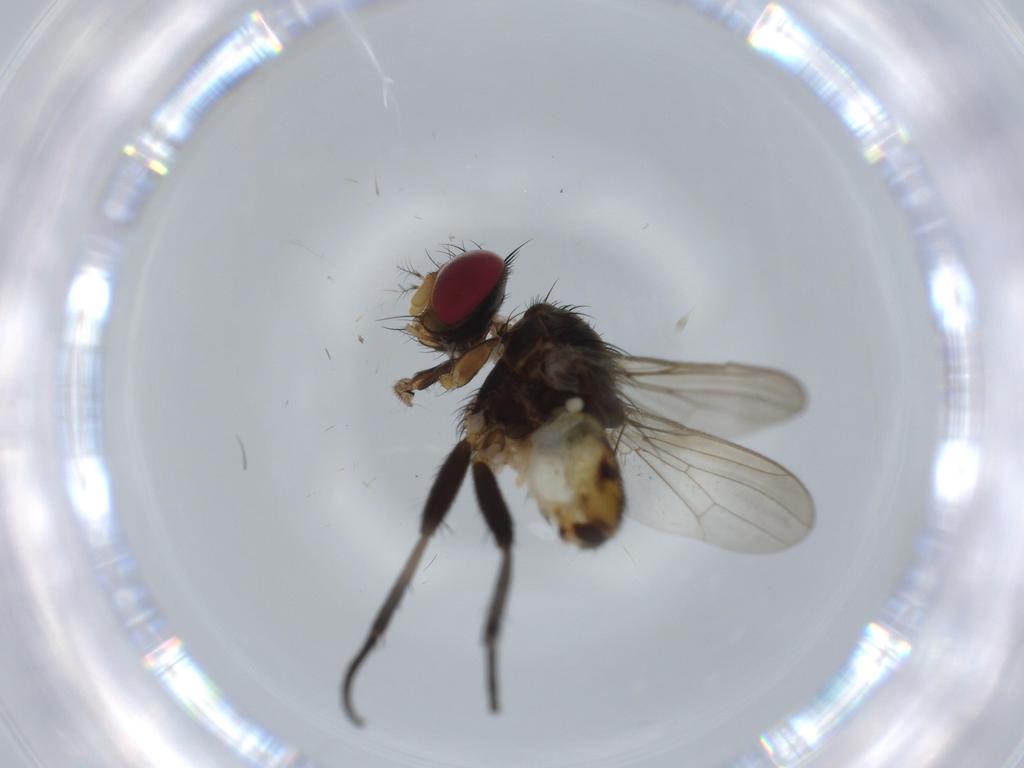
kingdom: Animalia
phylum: Arthropoda
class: Insecta
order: Diptera
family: Anthomyiidae
